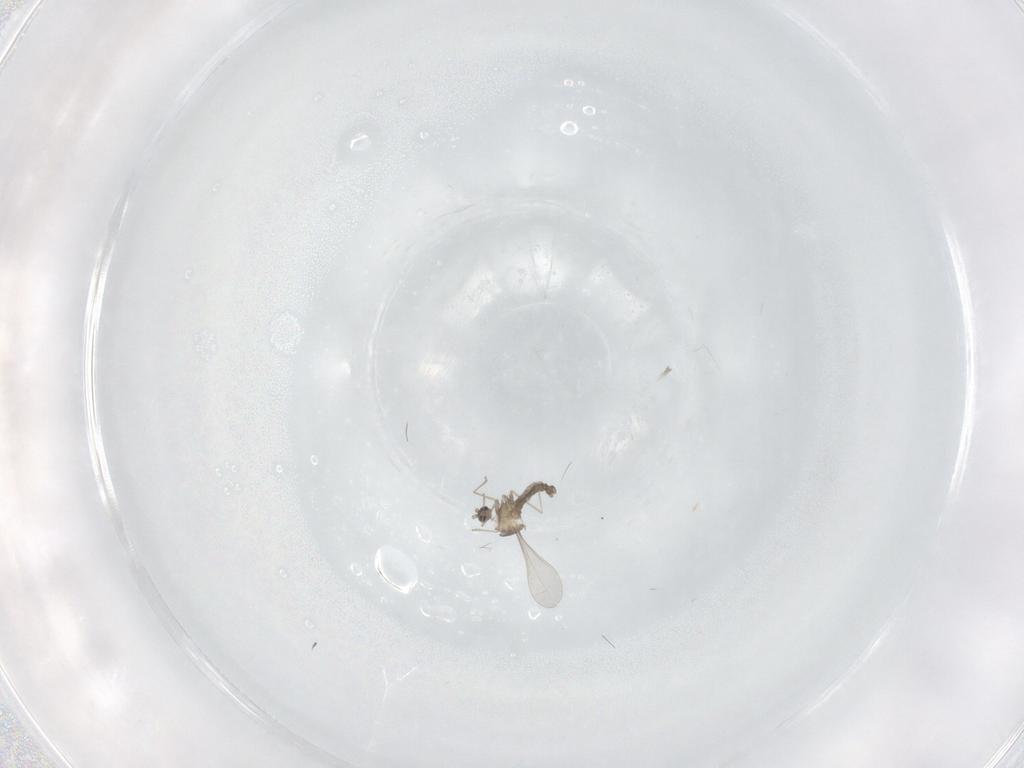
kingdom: Animalia
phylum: Arthropoda
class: Insecta
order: Diptera
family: Cecidomyiidae
